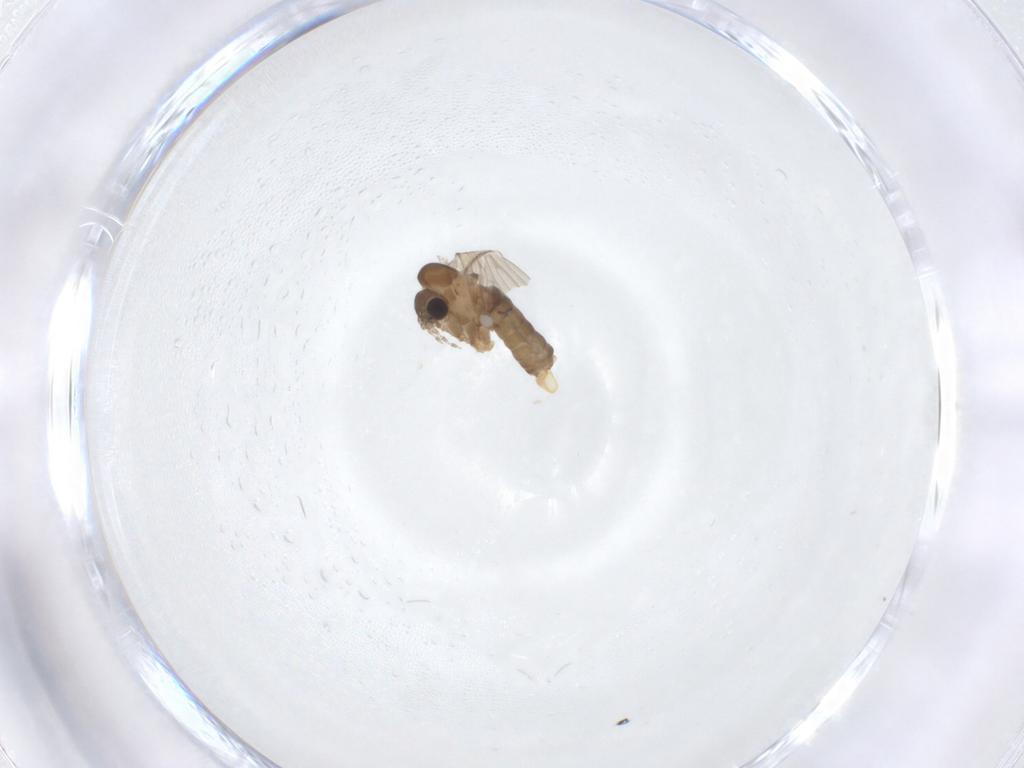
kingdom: Animalia
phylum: Arthropoda
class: Insecta
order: Diptera
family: Psychodidae
